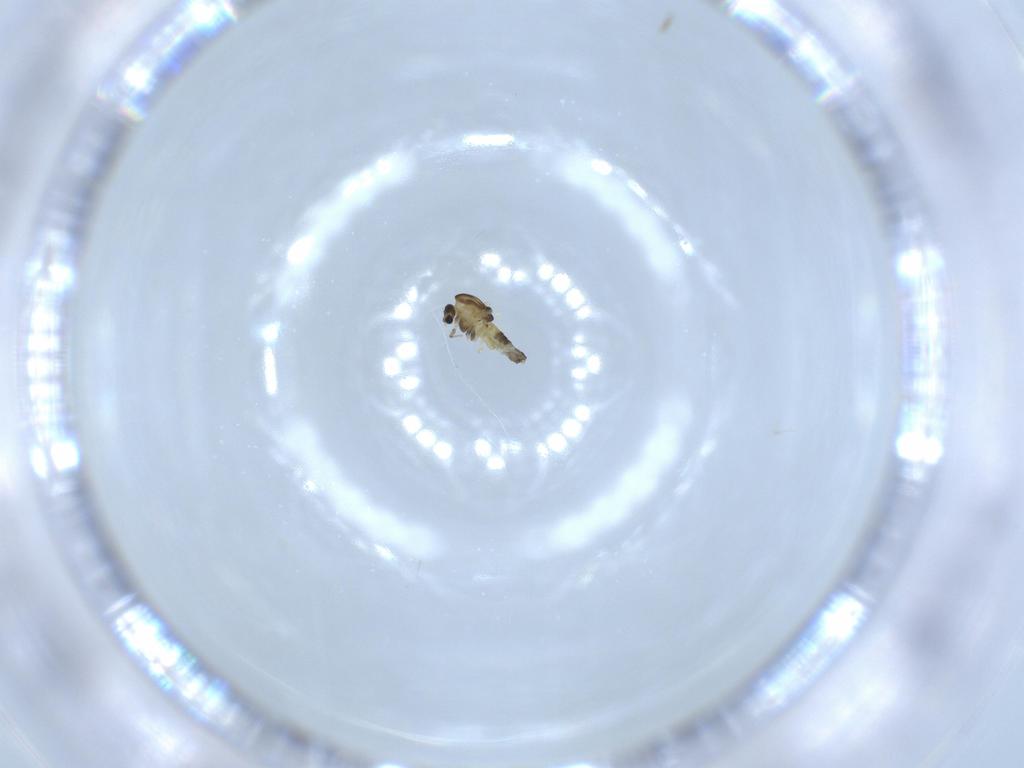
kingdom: Animalia
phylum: Arthropoda
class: Insecta
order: Diptera
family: Chironomidae
